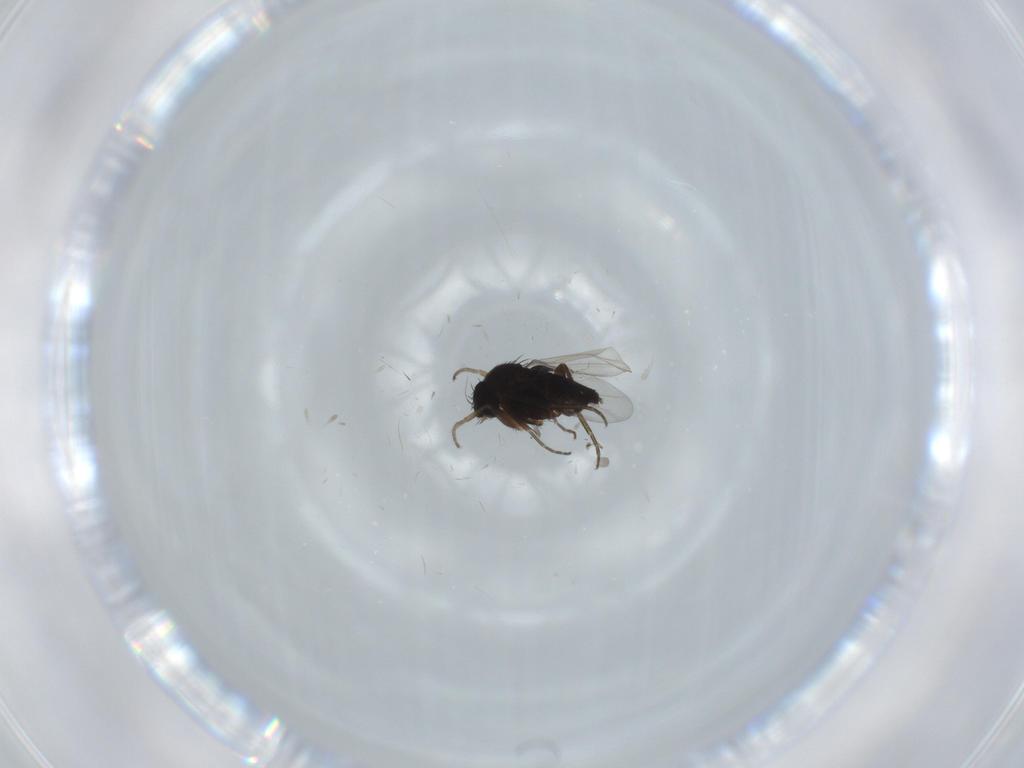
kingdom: Animalia
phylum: Arthropoda
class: Insecta
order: Diptera
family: Phoridae
